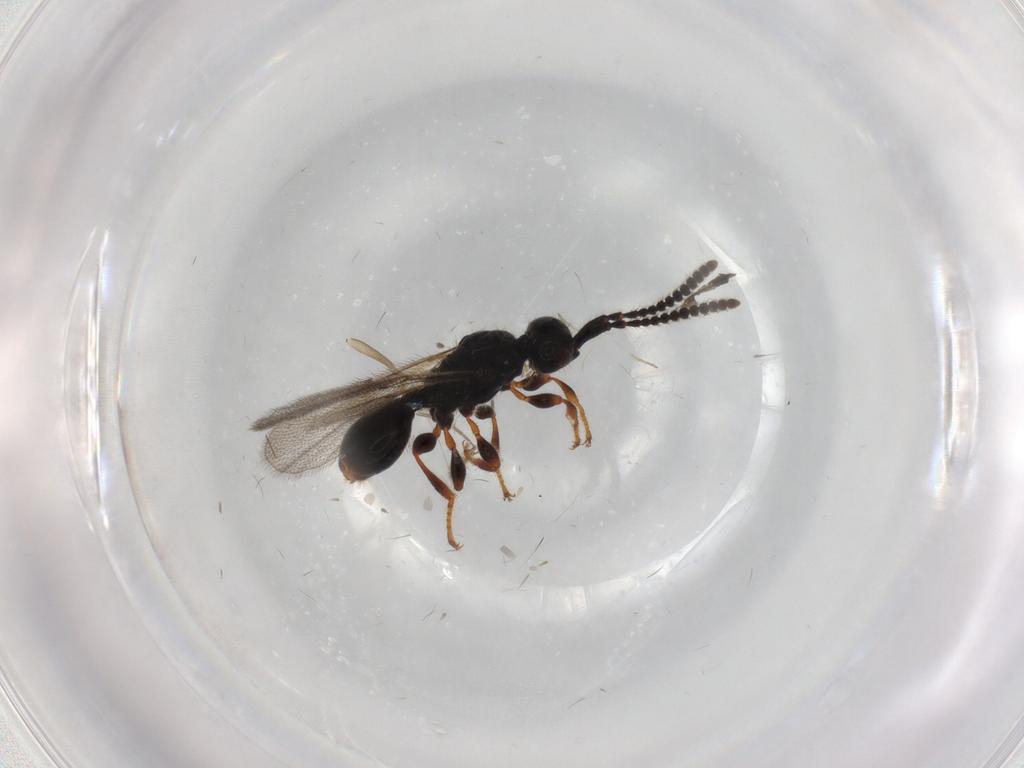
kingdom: Animalia
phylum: Arthropoda
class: Insecta
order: Hymenoptera
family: Diapriidae
